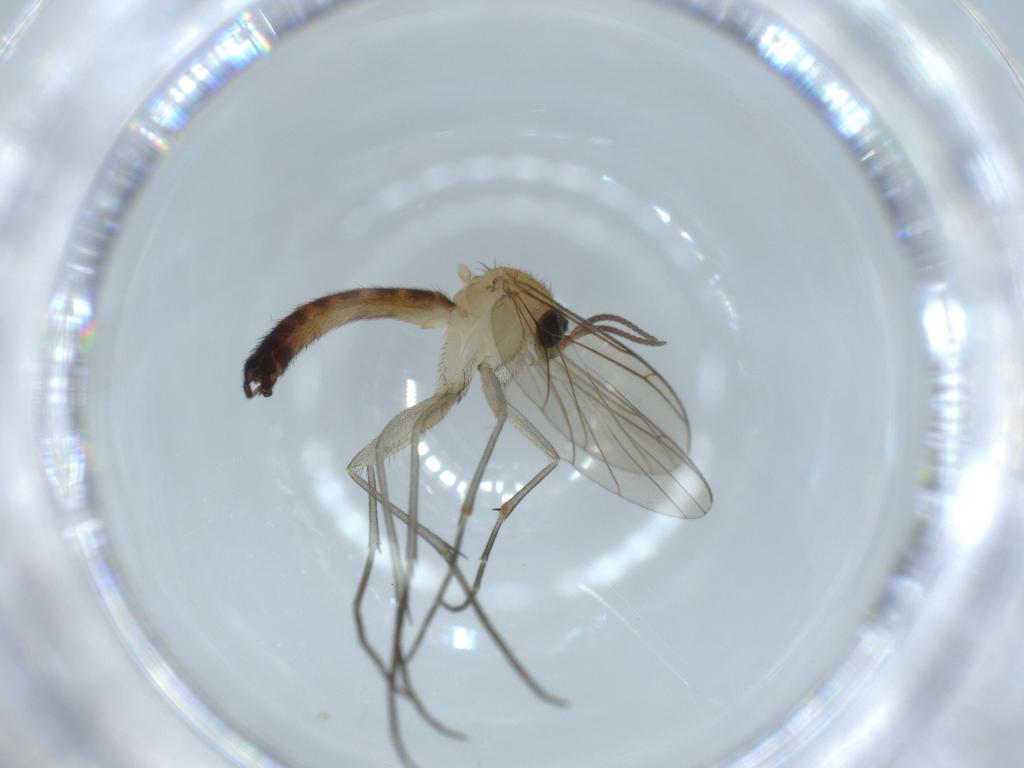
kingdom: Animalia
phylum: Arthropoda
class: Insecta
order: Diptera
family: Keroplatidae
